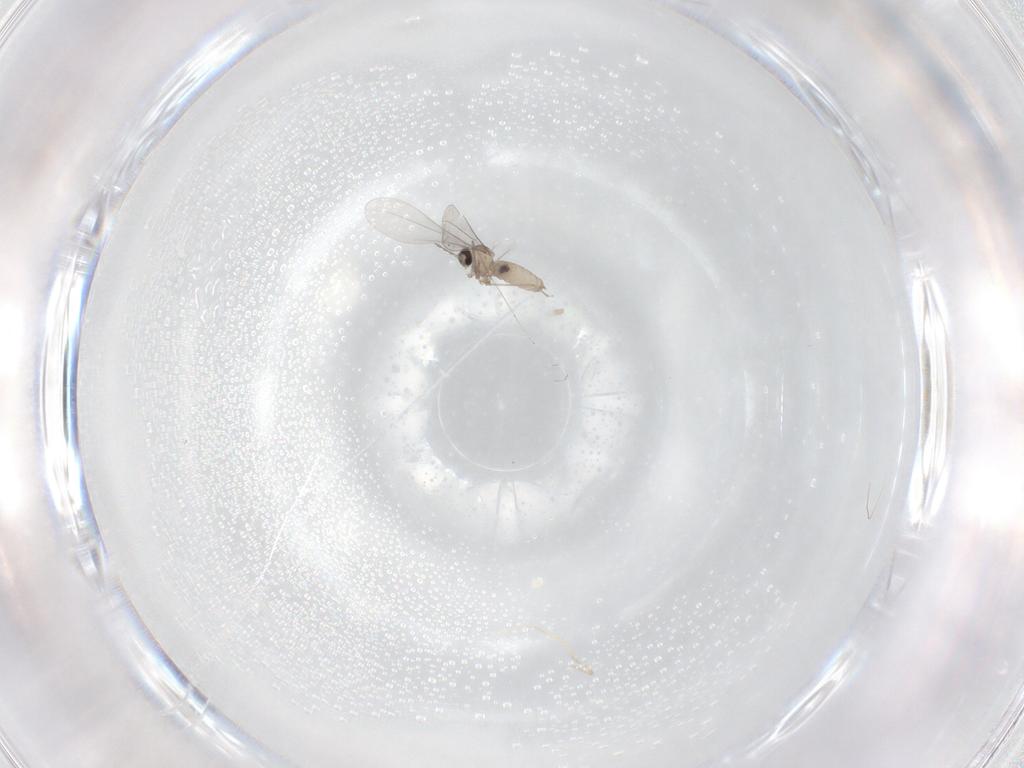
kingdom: Animalia
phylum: Arthropoda
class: Insecta
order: Diptera
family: Cecidomyiidae
